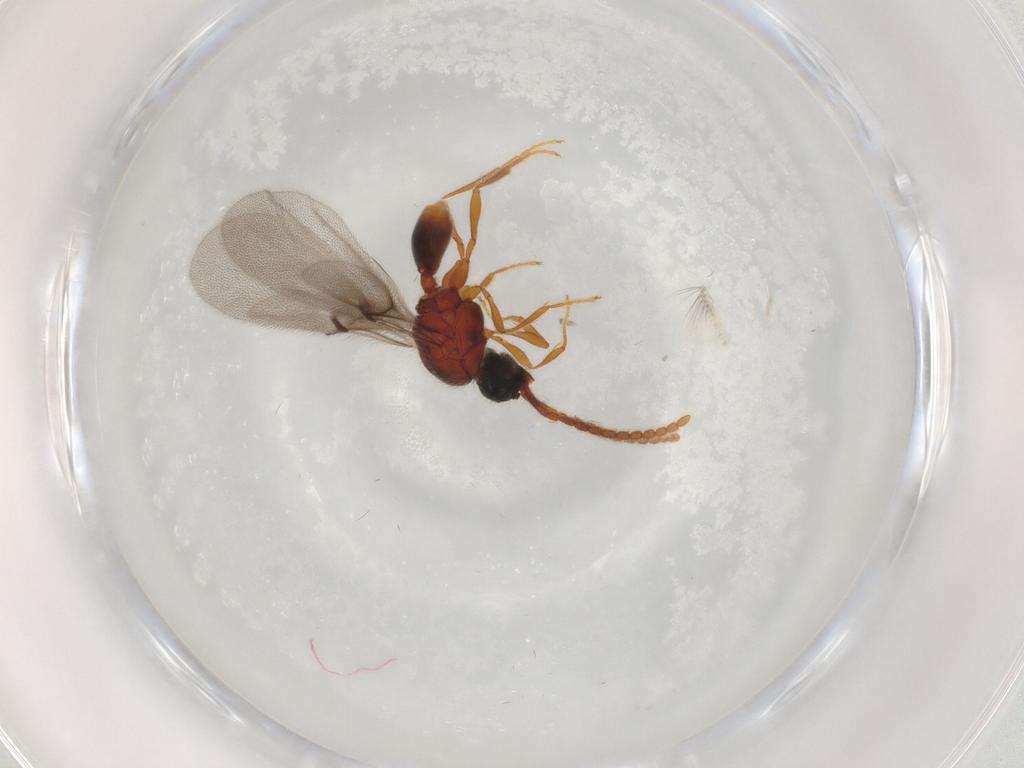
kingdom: Animalia
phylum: Arthropoda
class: Insecta
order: Hymenoptera
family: Diapriidae
